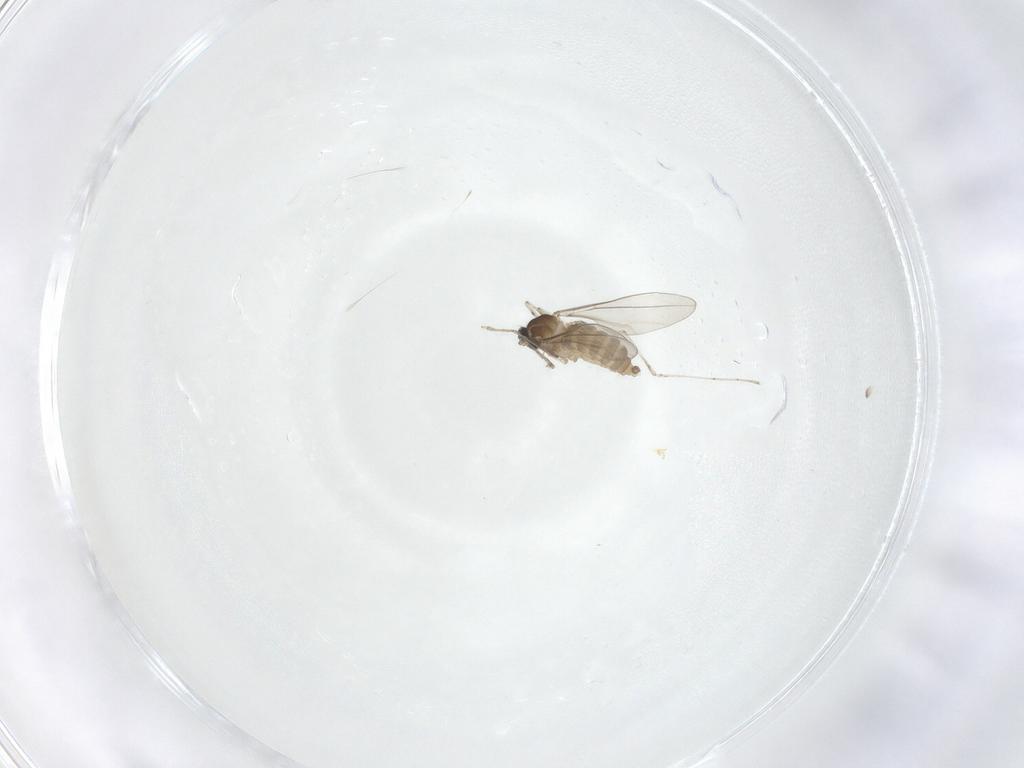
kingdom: Animalia
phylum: Arthropoda
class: Insecta
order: Diptera
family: Cecidomyiidae
